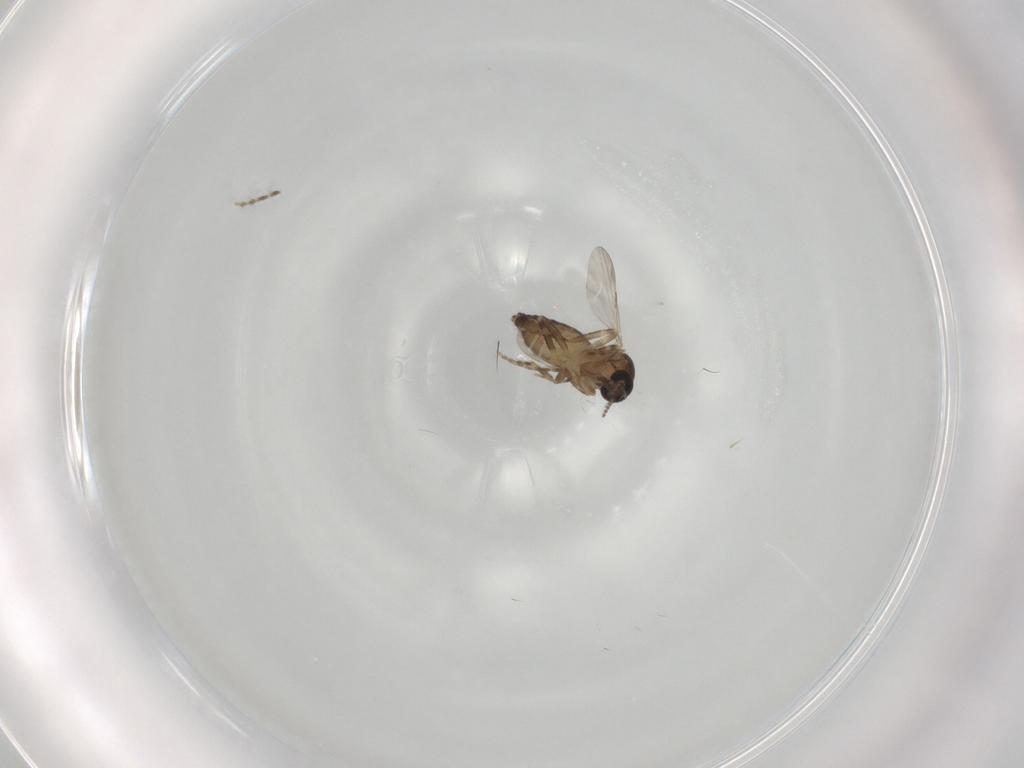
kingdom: Animalia
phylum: Arthropoda
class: Insecta
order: Diptera
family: Ceratopogonidae
